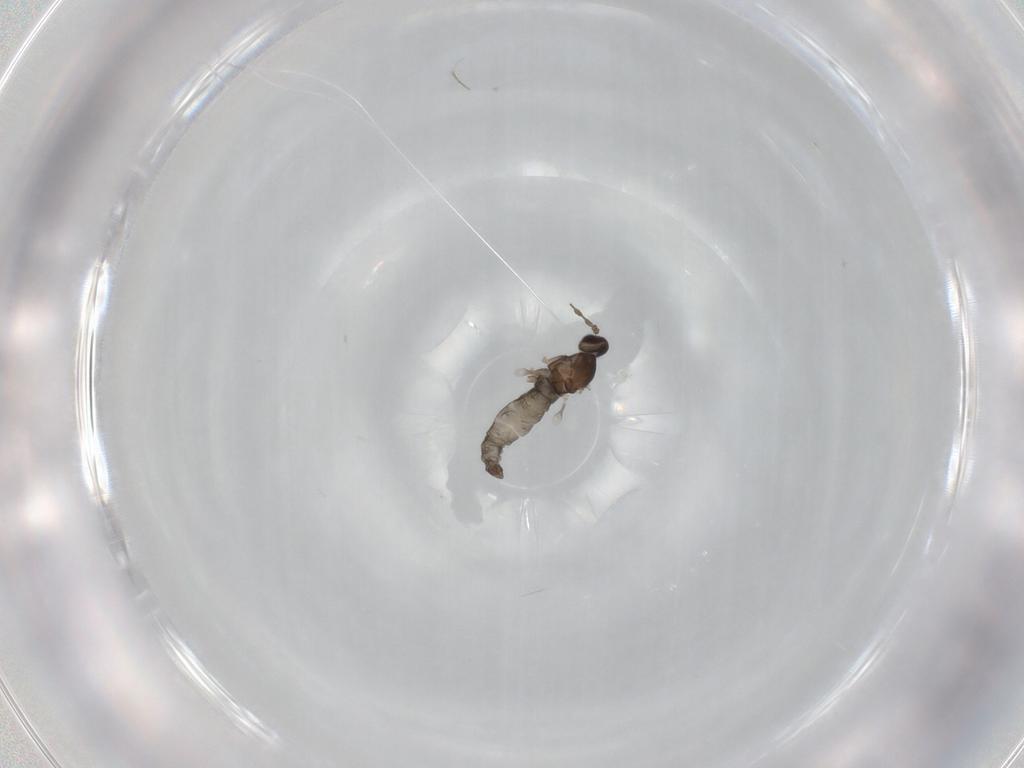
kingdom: Animalia
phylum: Arthropoda
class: Insecta
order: Diptera
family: Cecidomyiidae
